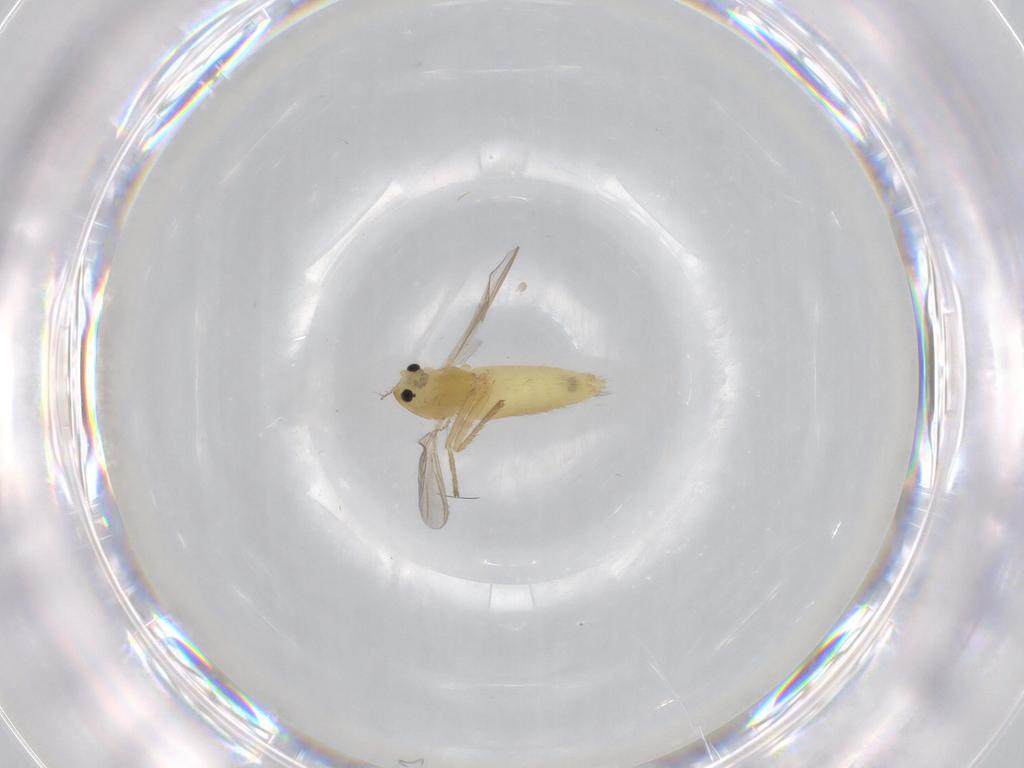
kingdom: Animalia
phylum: Arthropoda
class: Insecta
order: Diptera
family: Chironomidae
